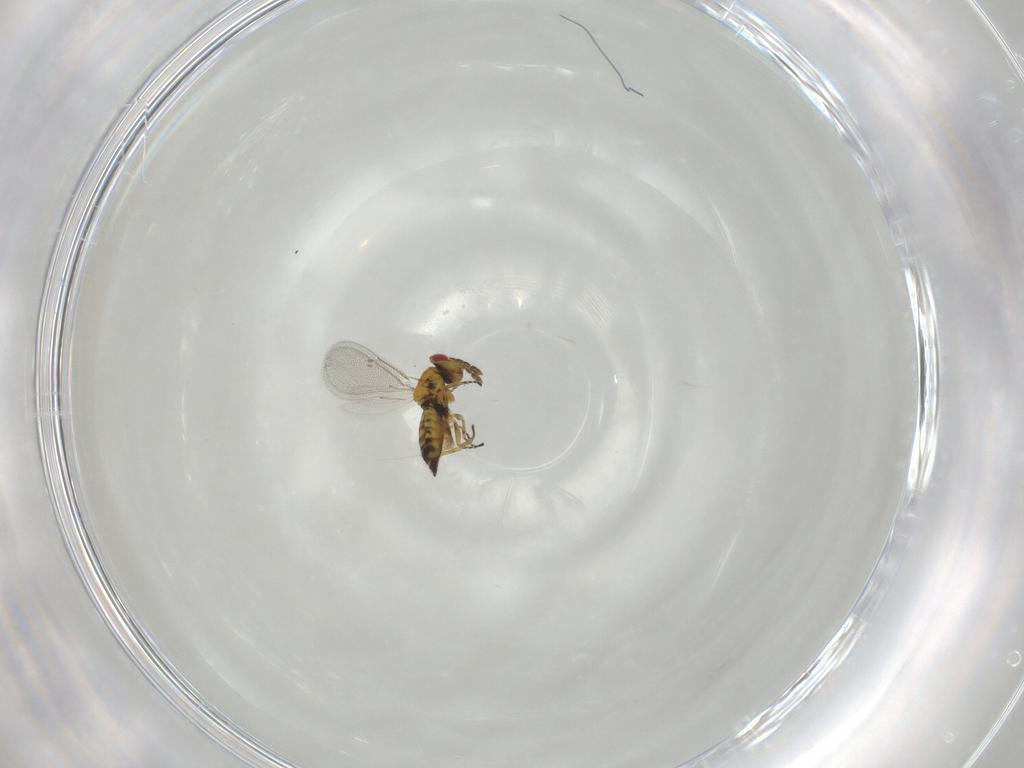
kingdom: Animalia
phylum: Arthropoda
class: Insecta
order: Hymenoptera
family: Eulophidae
